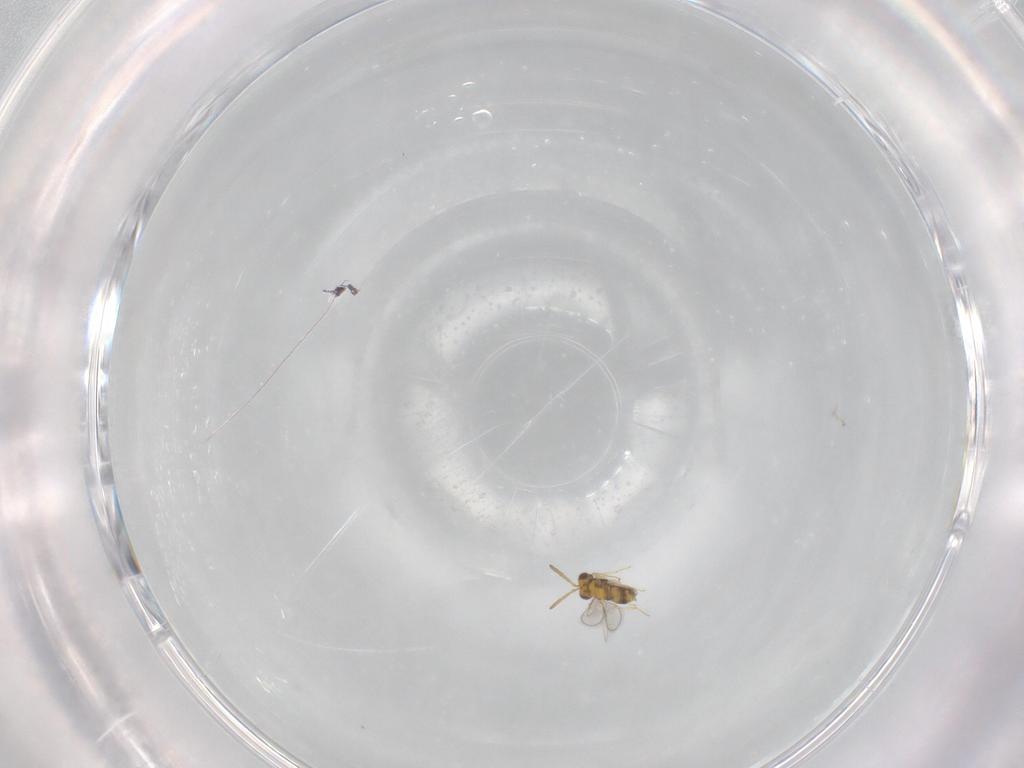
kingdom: Animalia
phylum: Arthropoda
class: Insecta
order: Hymenoptera
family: Aphelinidae
